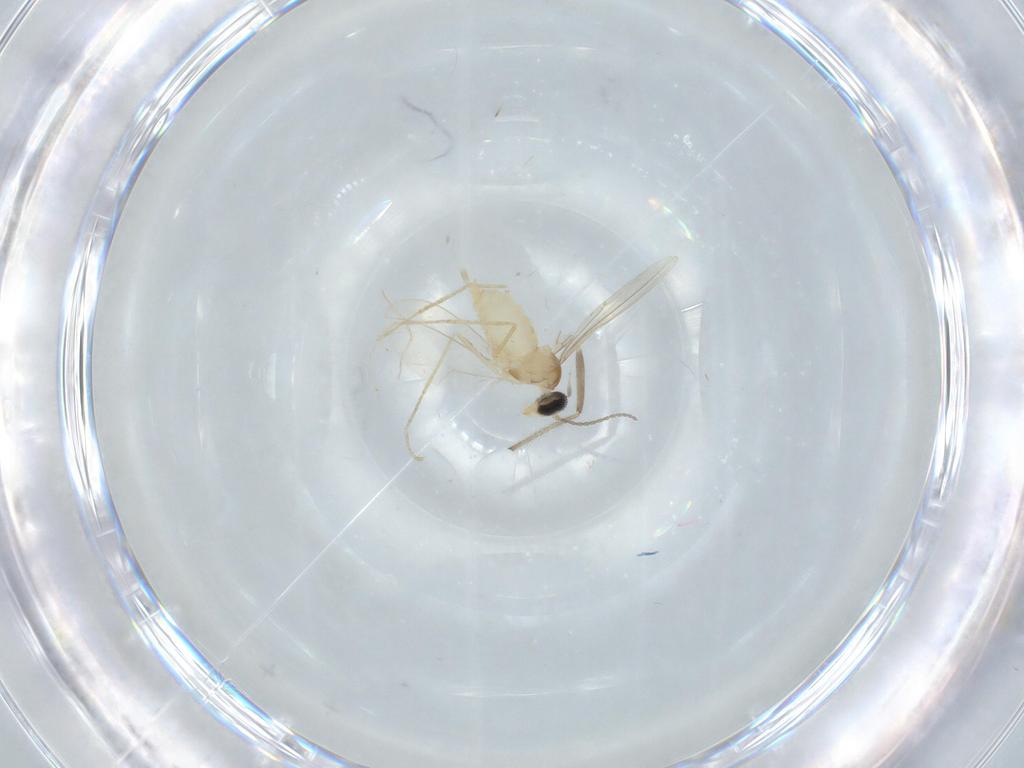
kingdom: Animalia
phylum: Arthropoda
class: Insecta
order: Diptera
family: Cecidomyiidae
